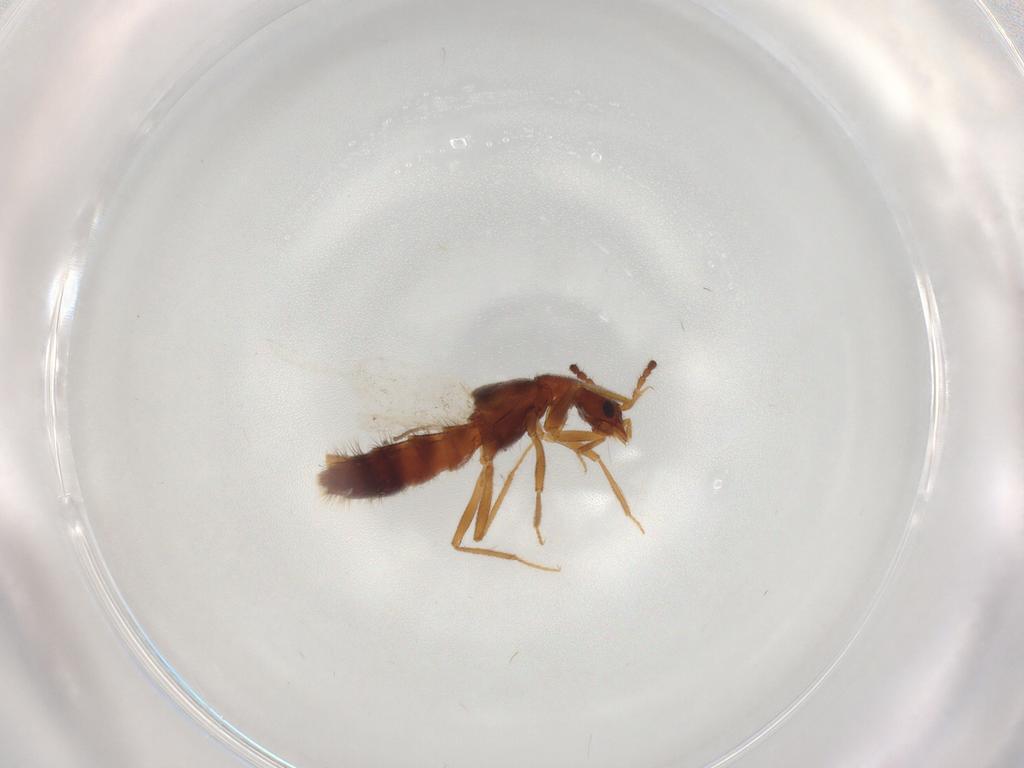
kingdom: Animalia
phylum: Arthropoda
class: Insecta
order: Coleoptera
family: Staphylinidae
